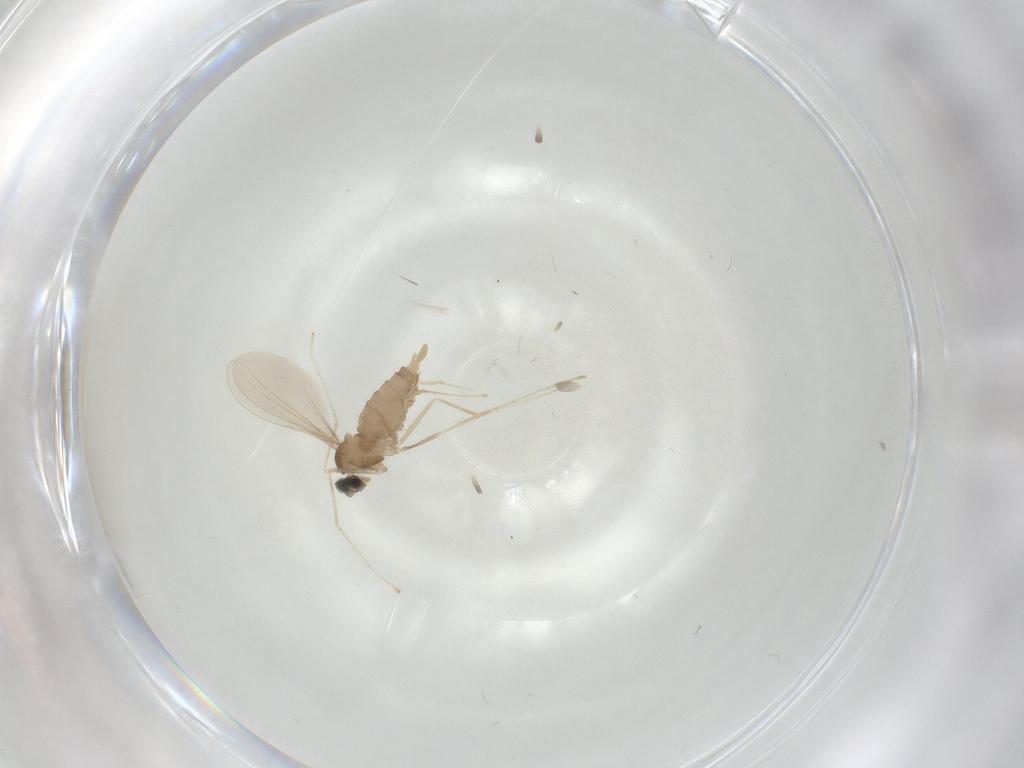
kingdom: Animalia
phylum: Arthropoda
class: Insecta
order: Diptera
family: Cecidomyiidae
